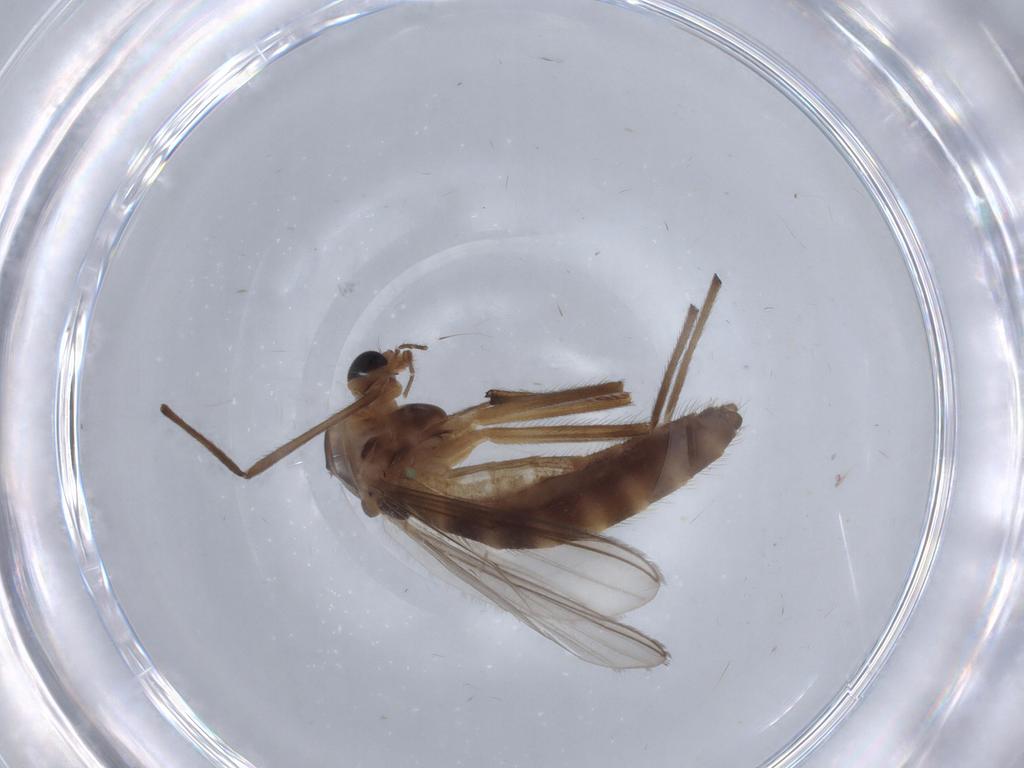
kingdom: Animalia
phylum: Arthropoda
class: Insecta
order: Diptera
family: Chironomidae
